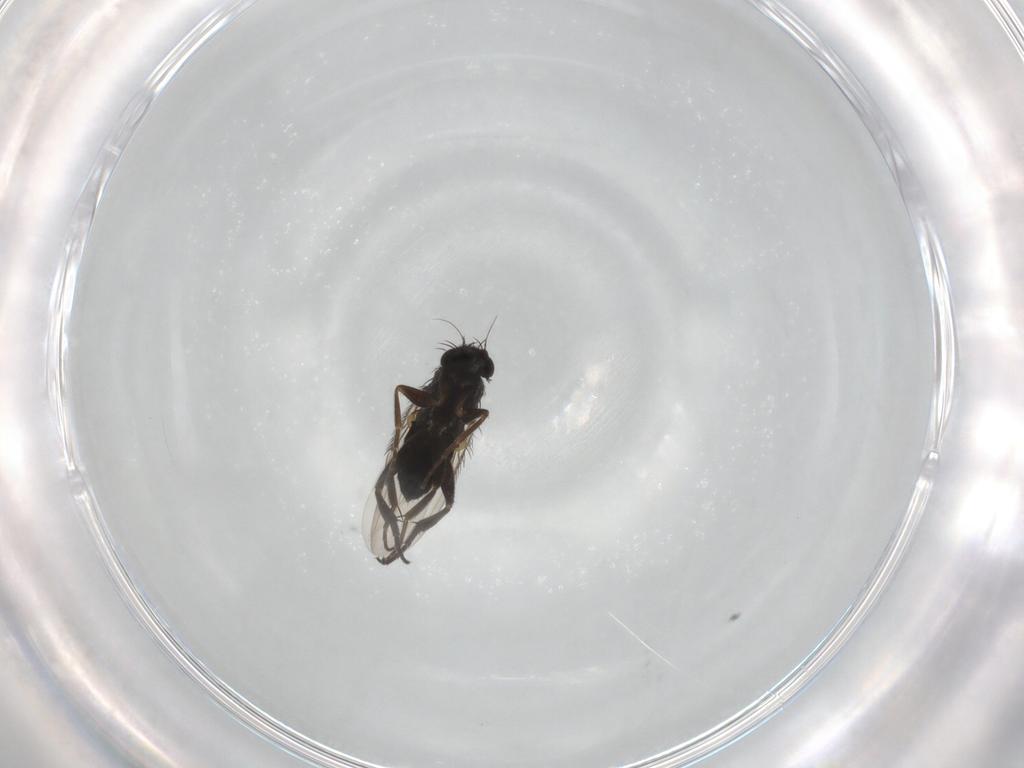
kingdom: Animalia
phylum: Arthropoda
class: Insecta
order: Diptera
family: Phoridae
